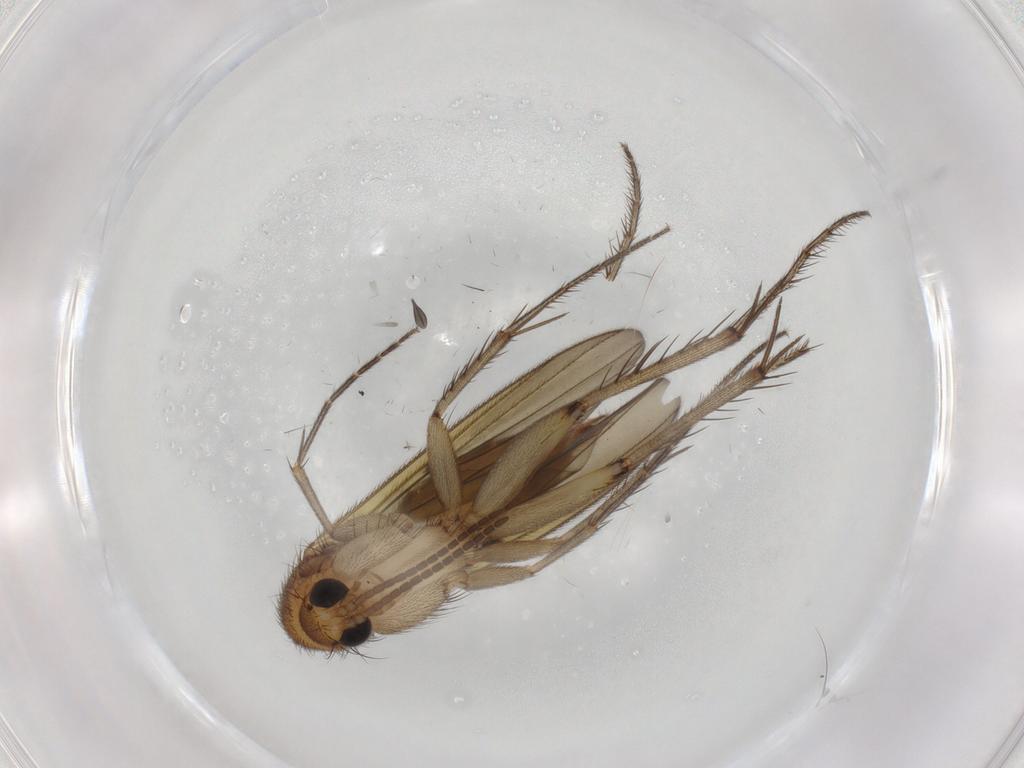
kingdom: Animalia
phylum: Arthropoda
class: Insecta
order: Diptera
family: Mycetophilidae
